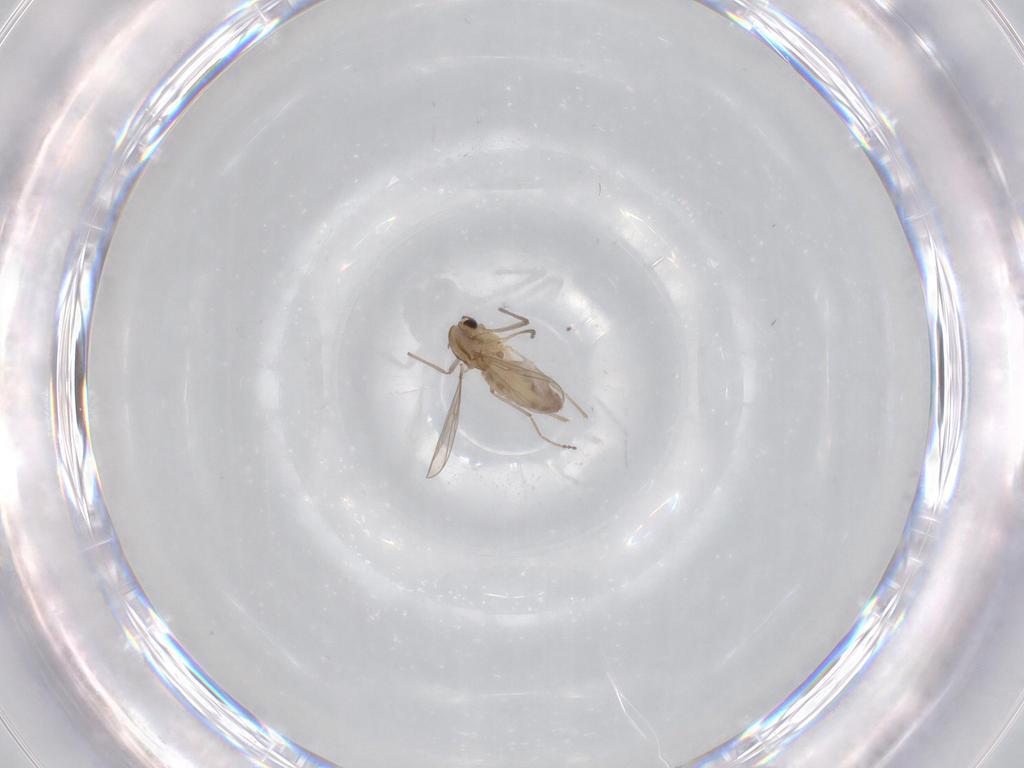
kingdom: Animalia
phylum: Arthropoda
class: Insecta
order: Diptera
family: Chironomidae
